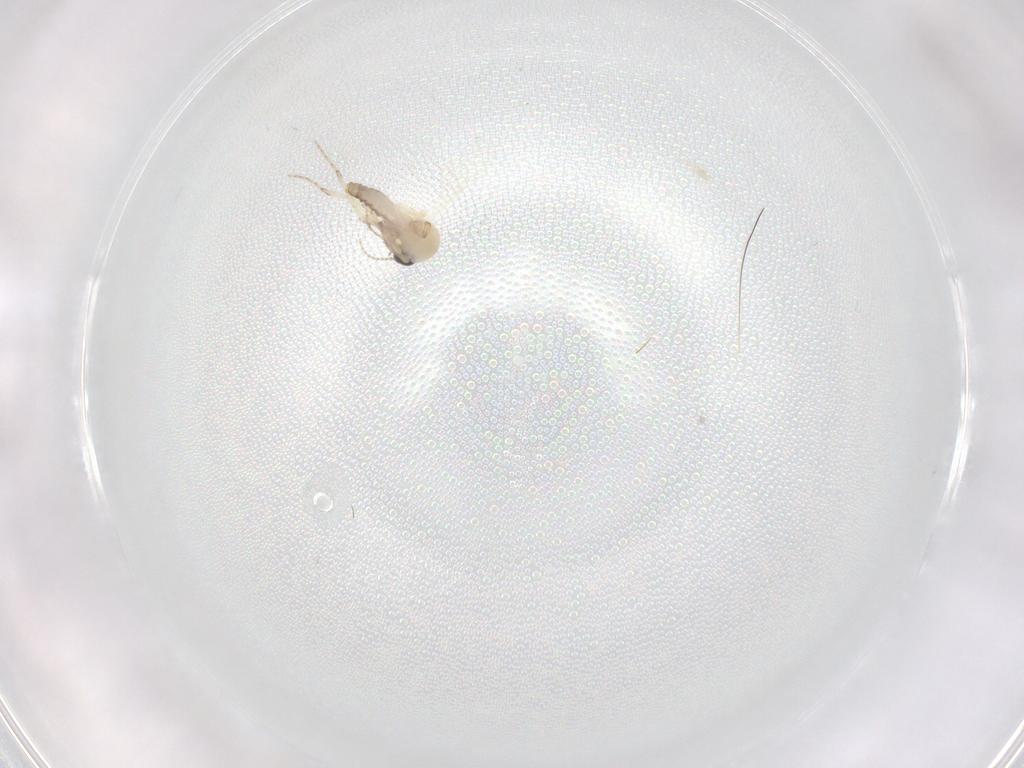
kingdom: Animalia
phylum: Arthropoda
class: Insecta
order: Diptera
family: Ceratopogonidae
